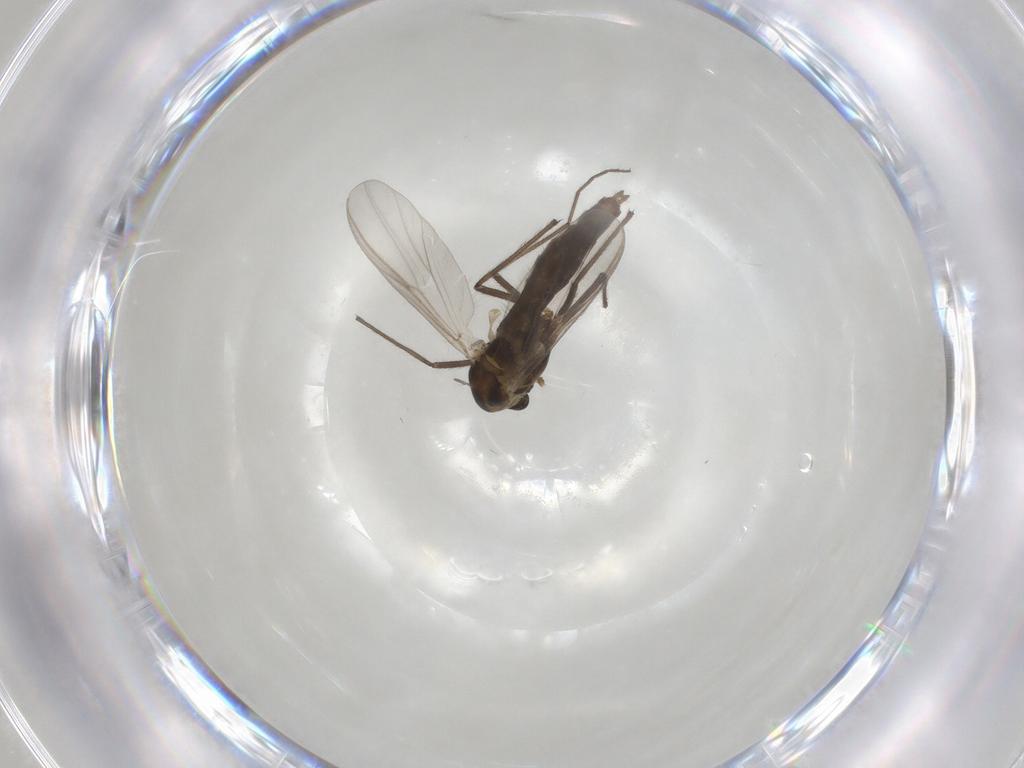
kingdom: Animalia
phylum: Arthropoda
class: Insecta
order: Diptera
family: Chironomidae
